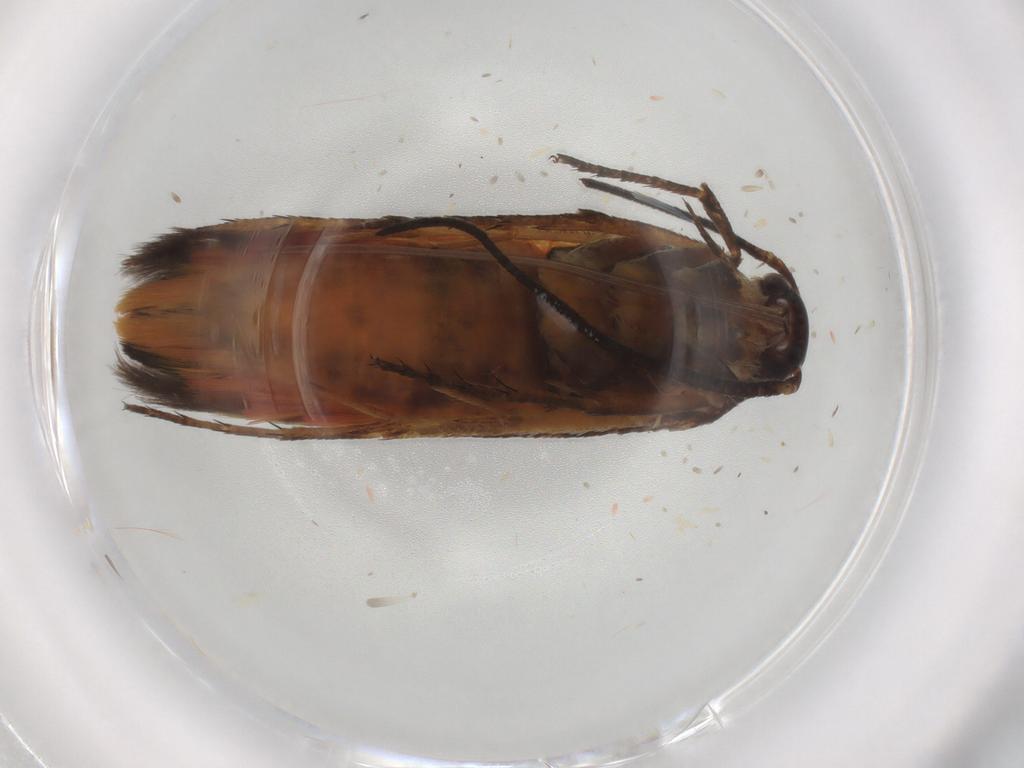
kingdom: Animalia
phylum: Arthropoda
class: Insecta
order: Lepidoptera
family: Scythrididae
